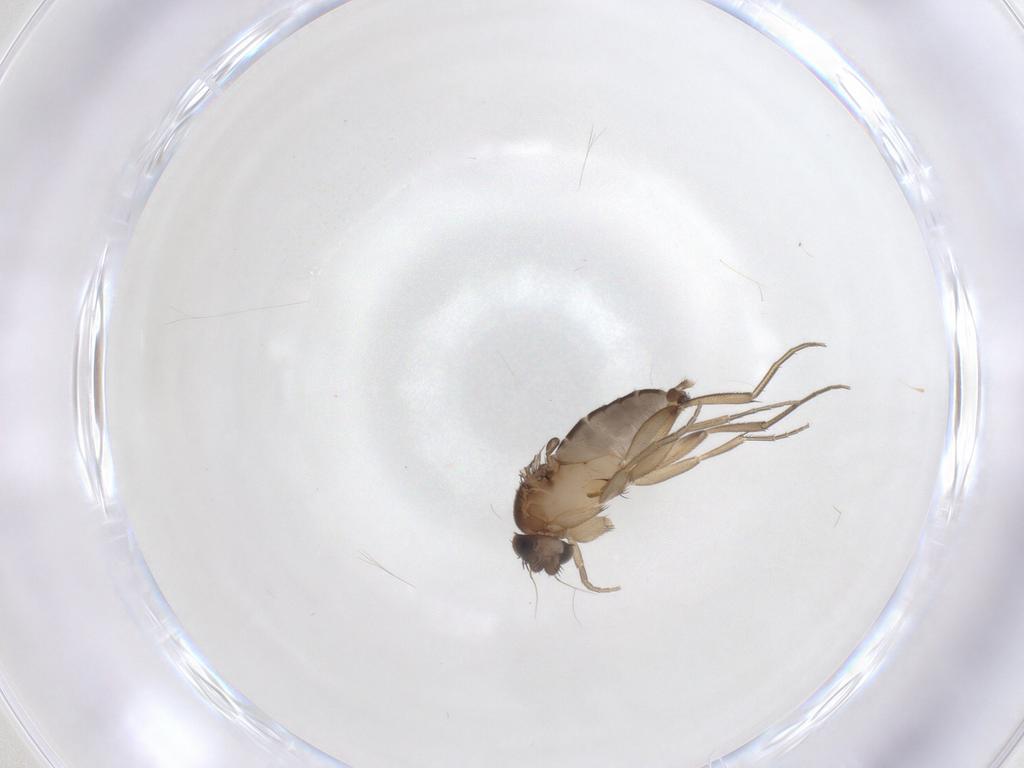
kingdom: Animalia
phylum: Arthropoda
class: Insecta
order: Diptera
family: Phoridae
